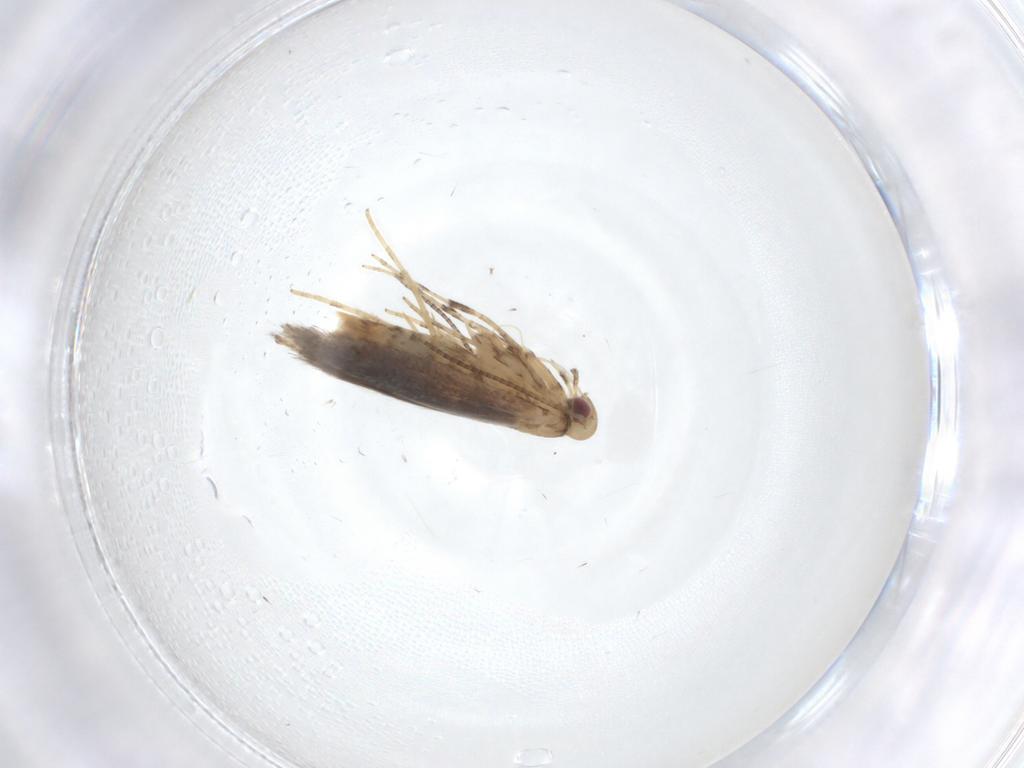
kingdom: Animalia
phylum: Arthropoda
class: Insecta
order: Lepidoptera
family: Gracillariidae
